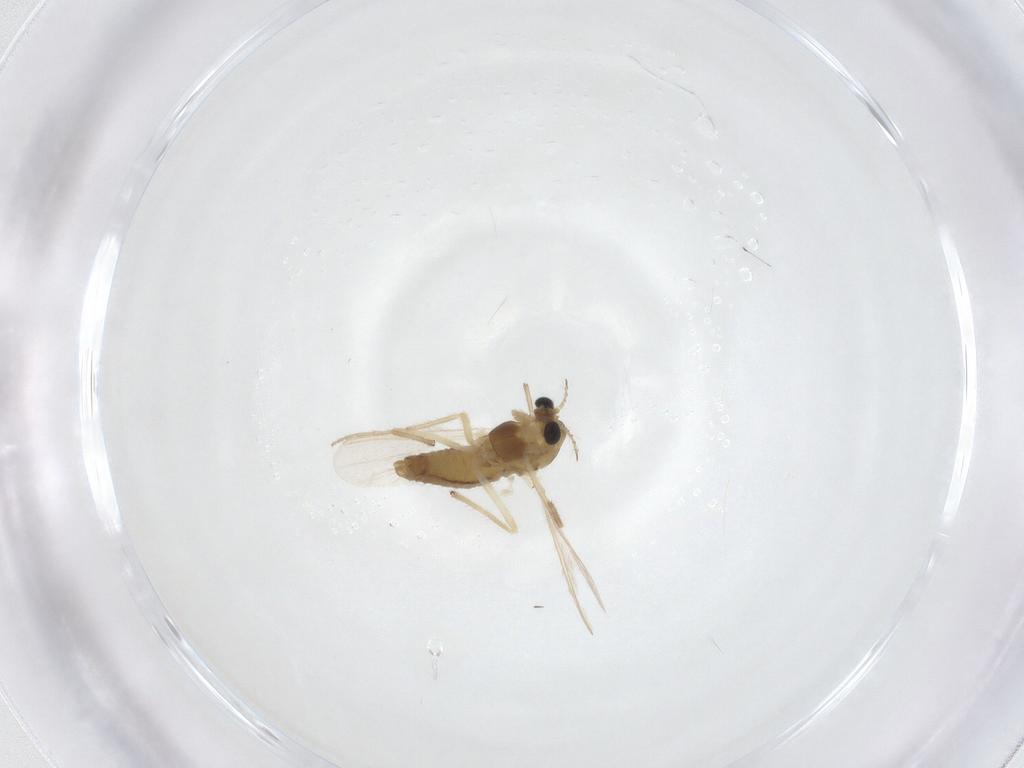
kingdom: Animalia
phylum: Arthropoda
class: Insecta
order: Diptera
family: Chironomidae
